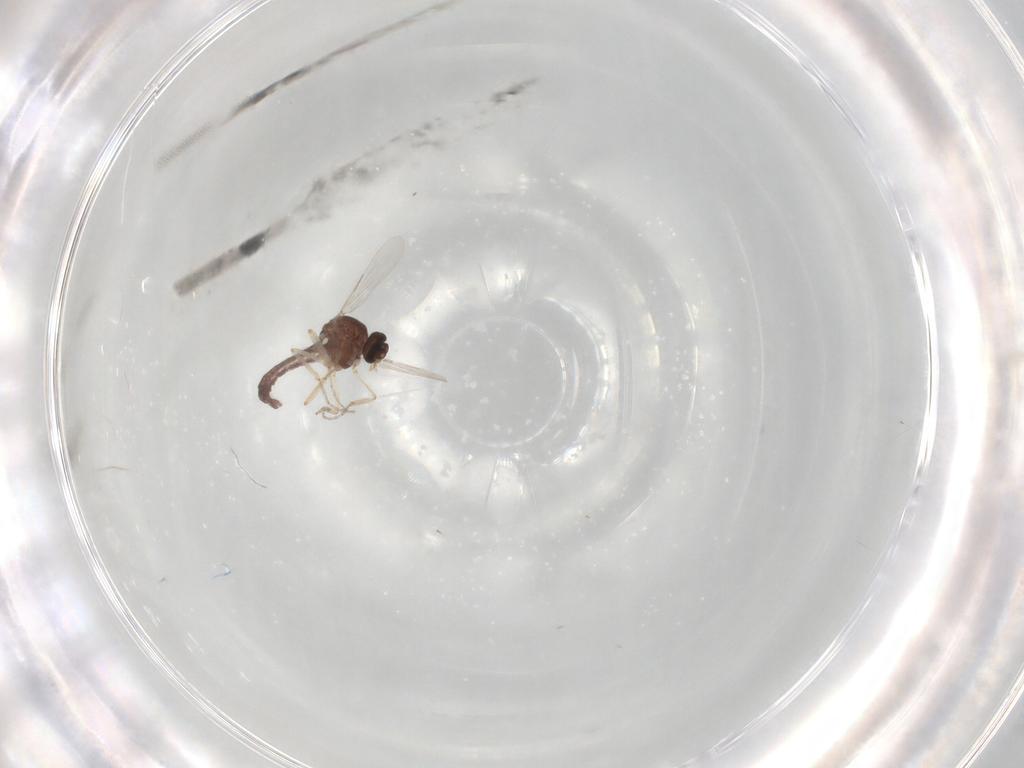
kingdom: Animalia
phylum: Arthropoda
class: Insecta
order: Diptera
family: Ceratopogonidae
